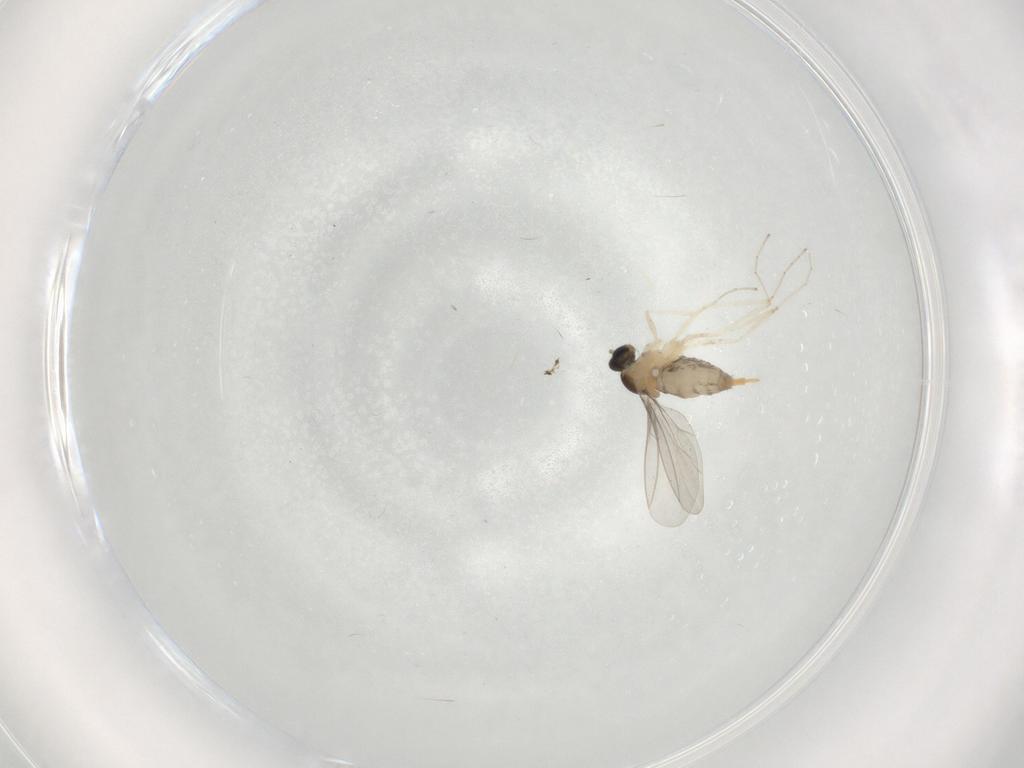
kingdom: Animalia
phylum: Arthropoda
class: Insecta
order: Diptera
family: Cecidomyiidae
